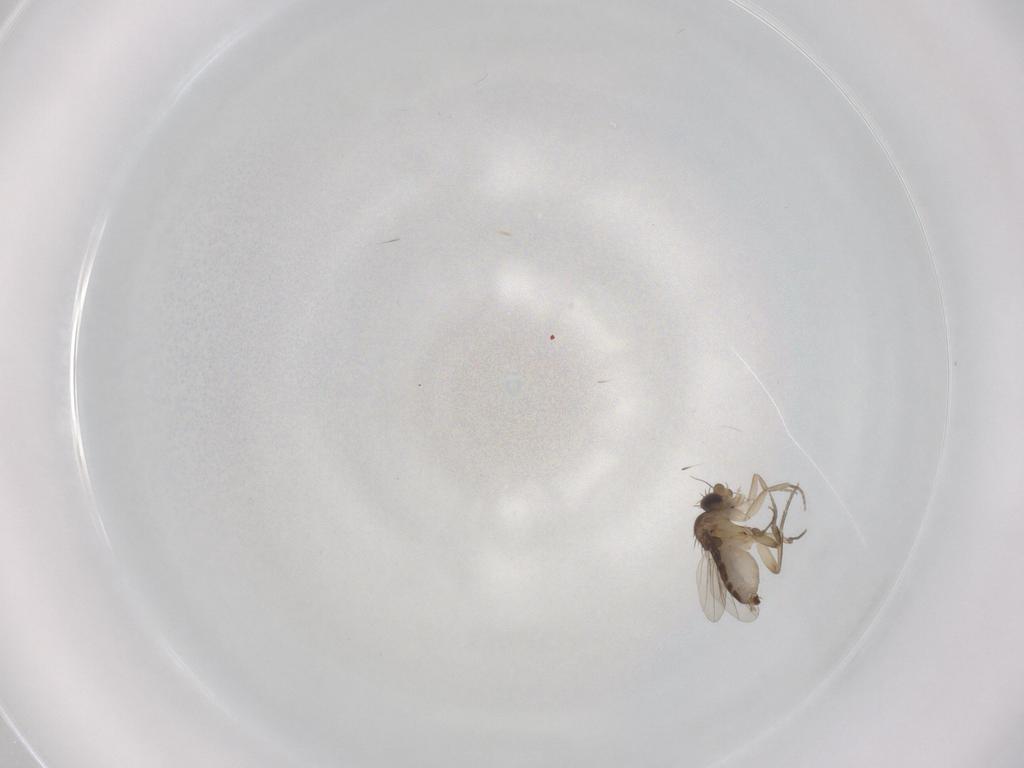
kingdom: Animalia
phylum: Arthropoda
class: Insecta
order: Diptera
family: Phoridae
